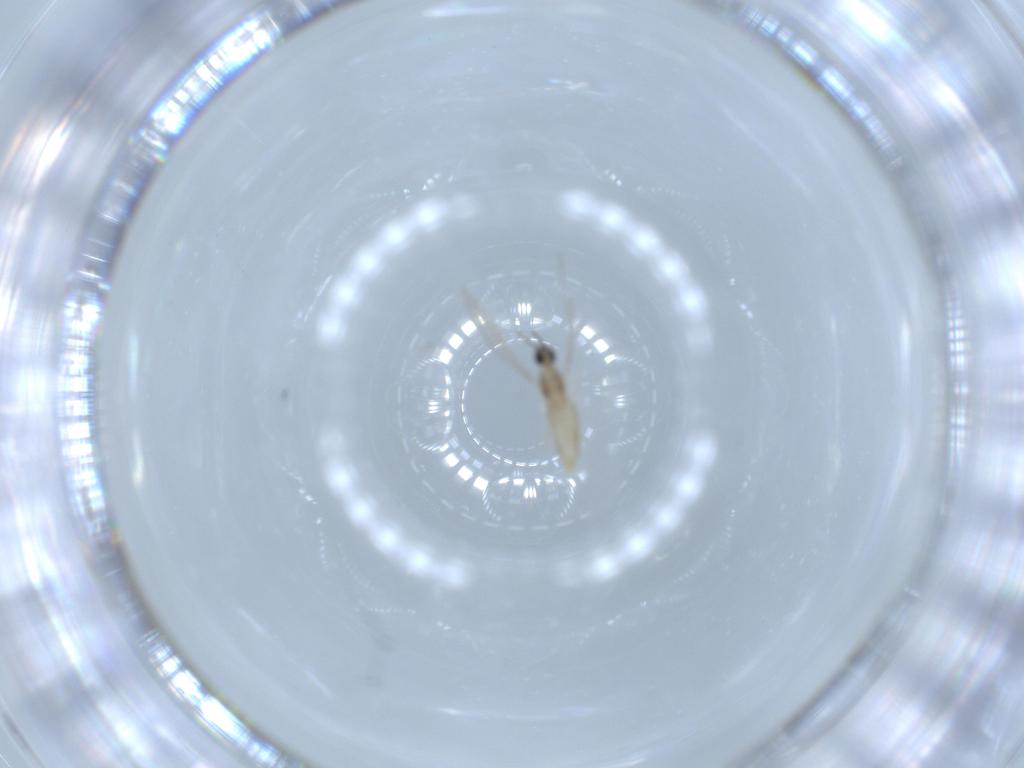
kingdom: Animalia
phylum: Arthropoda
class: Insecta
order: Diptera
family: Cecidomyiidae
